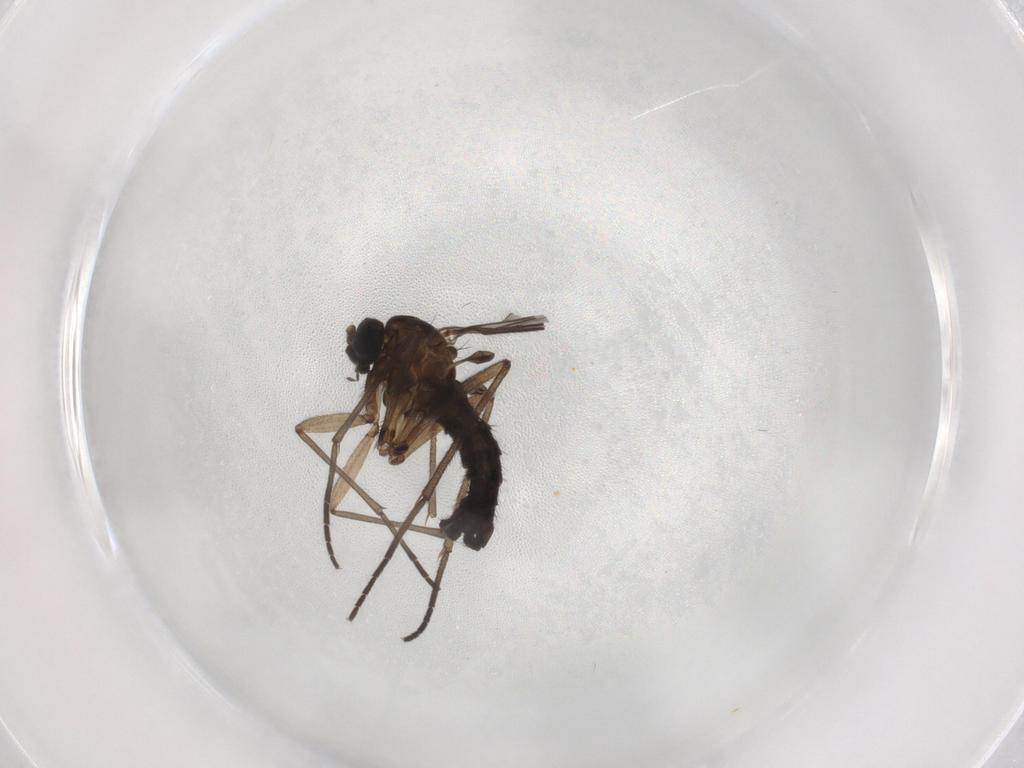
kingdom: Animalia
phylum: Arthropoda
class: Insecta
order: Diptera
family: Sciaridae
